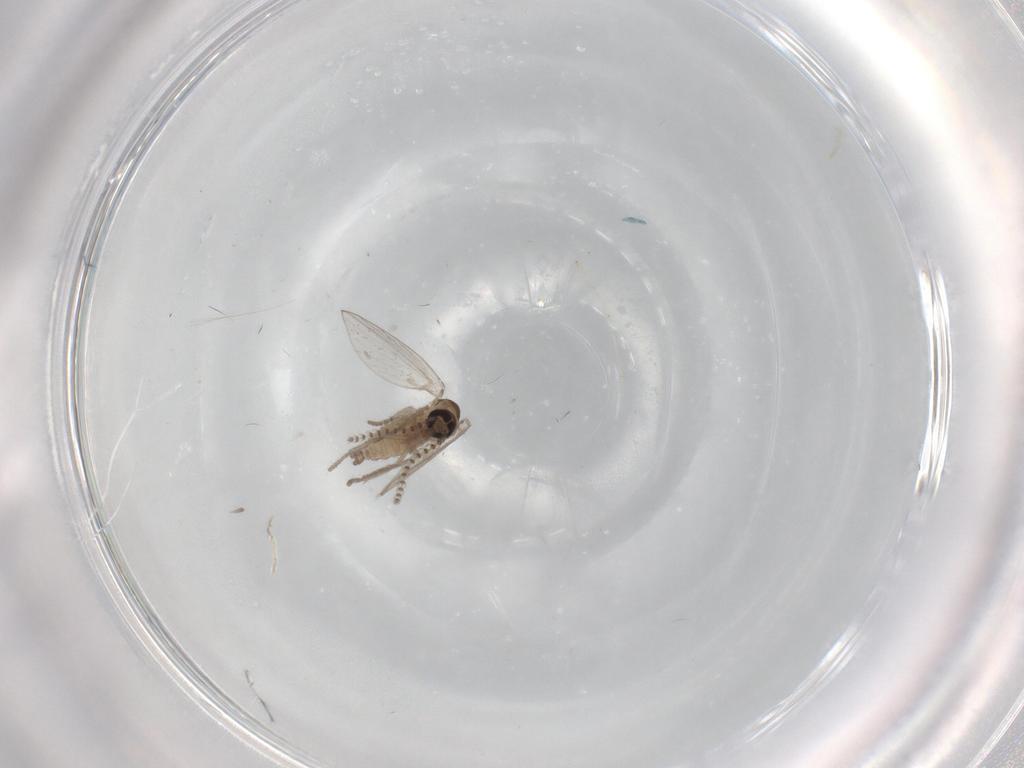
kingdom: Animalia
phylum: Arthropoda
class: Insecta
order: Diptera
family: Psychodidae
